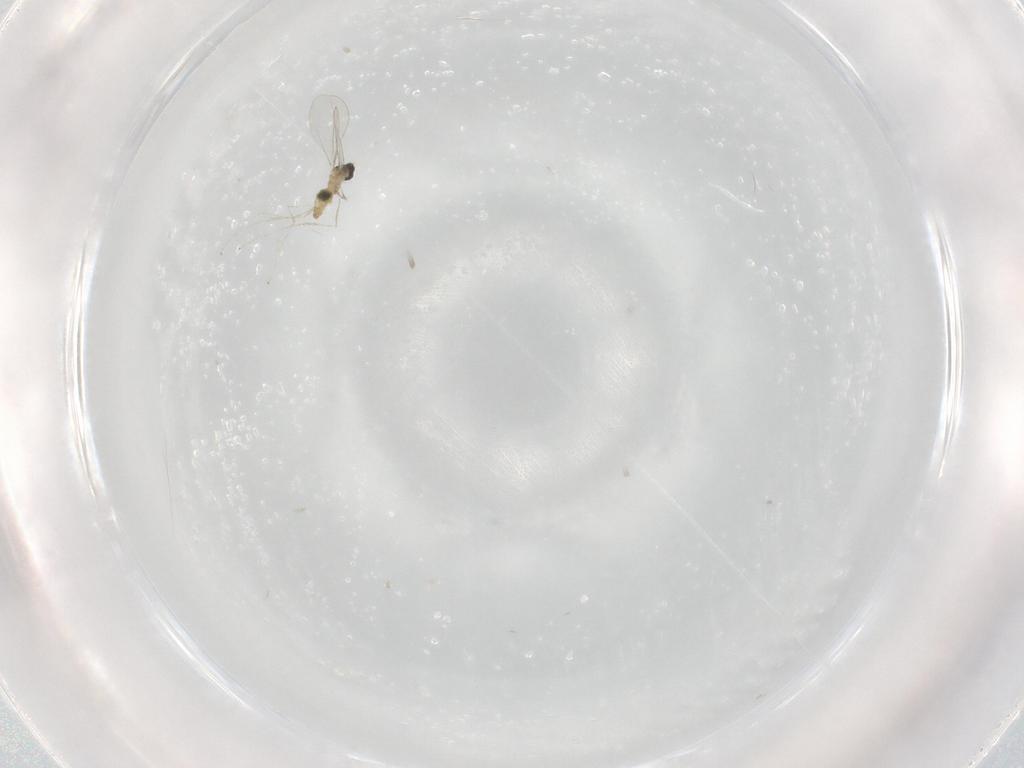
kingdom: Animalia
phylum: Arthropoda
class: Insecta
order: Diptera
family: Cecidomyiidae
